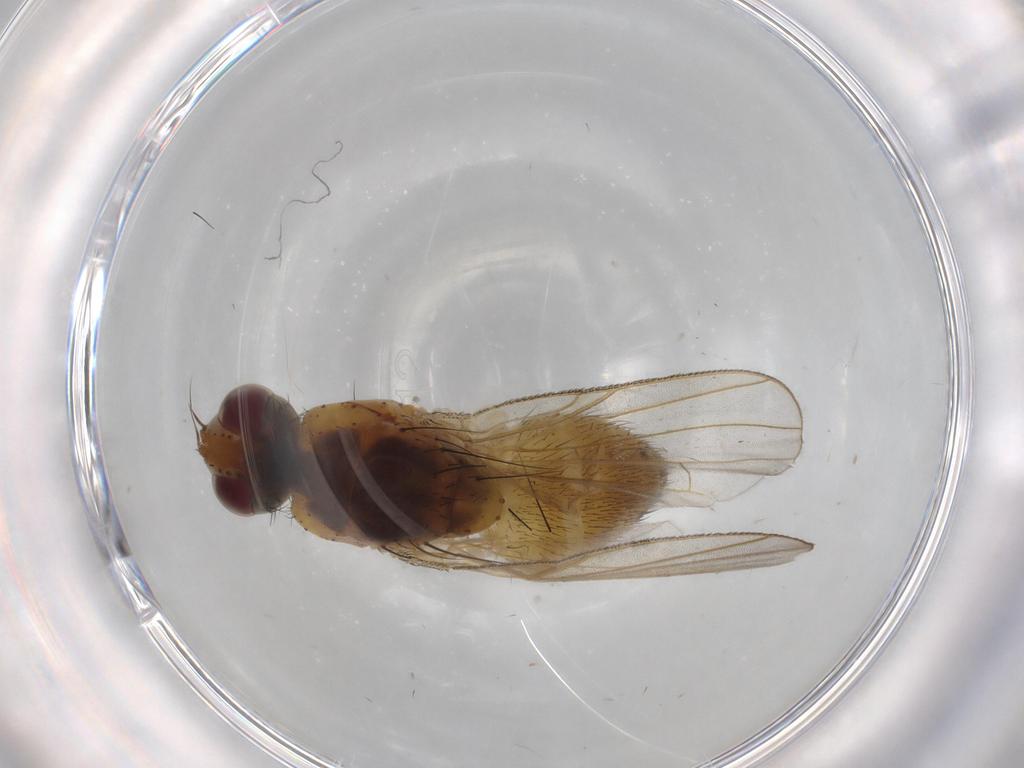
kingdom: Animalia
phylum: Arthropoda
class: Insecta
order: Diptera
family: Muscidae
